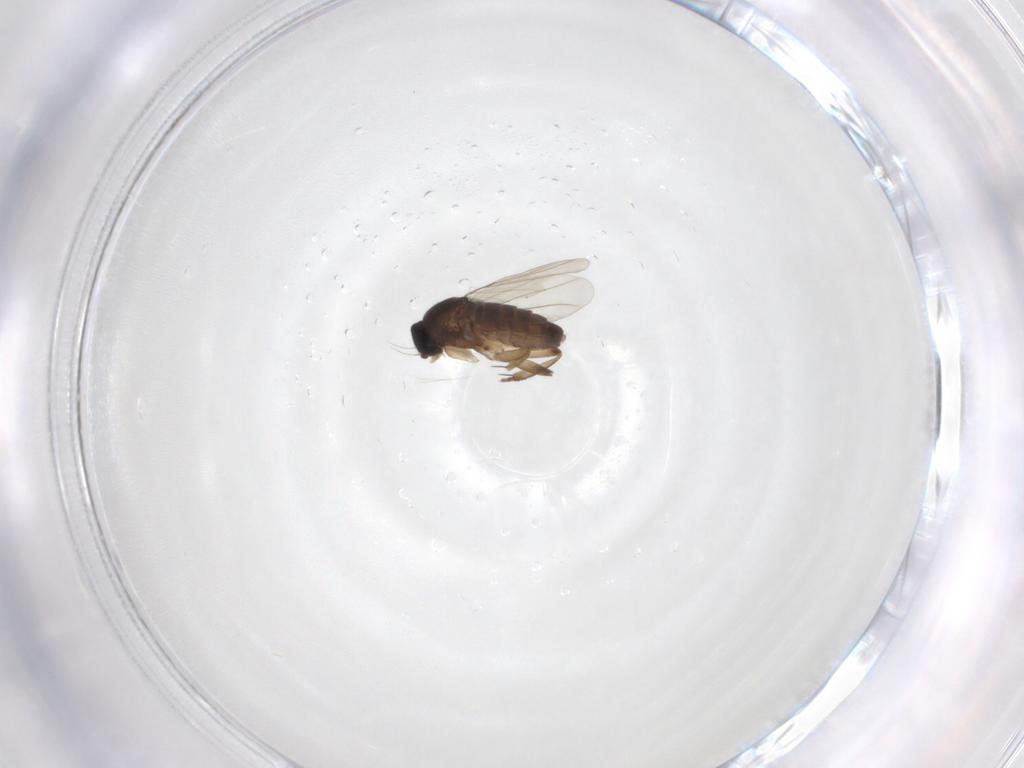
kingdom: Animalia
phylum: Arthropoda
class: Insecta
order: Diptera
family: Phoridae
